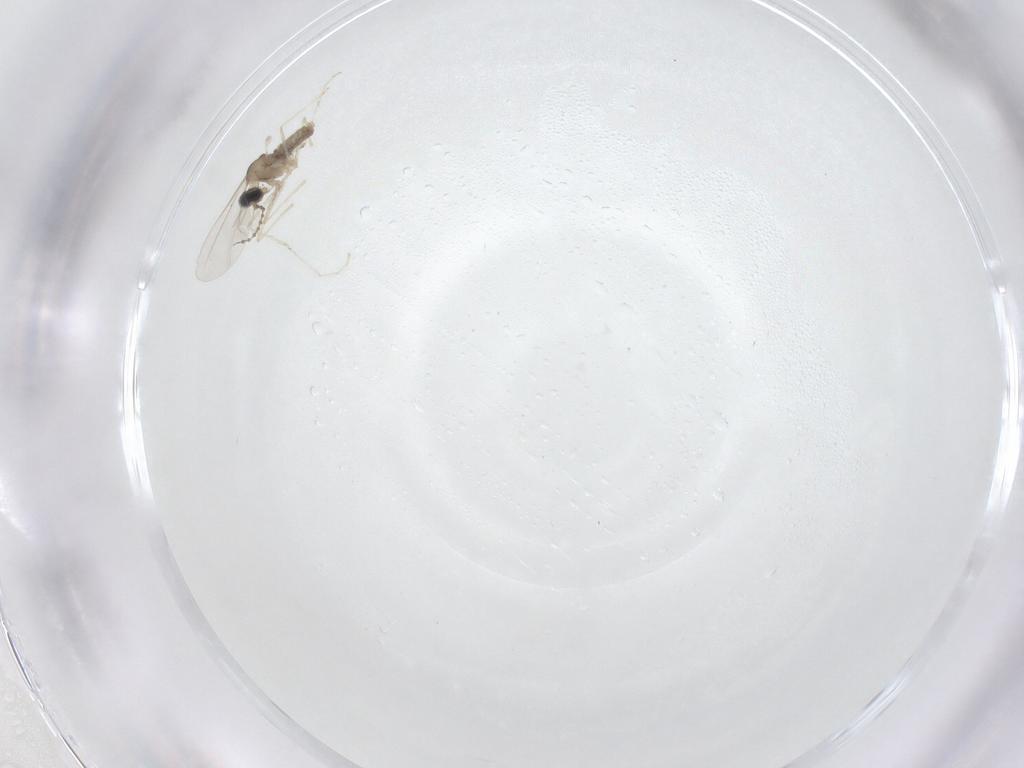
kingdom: Animalia
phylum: Arthropoda
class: Insecta
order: Diptera
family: Cecidomyiidae
